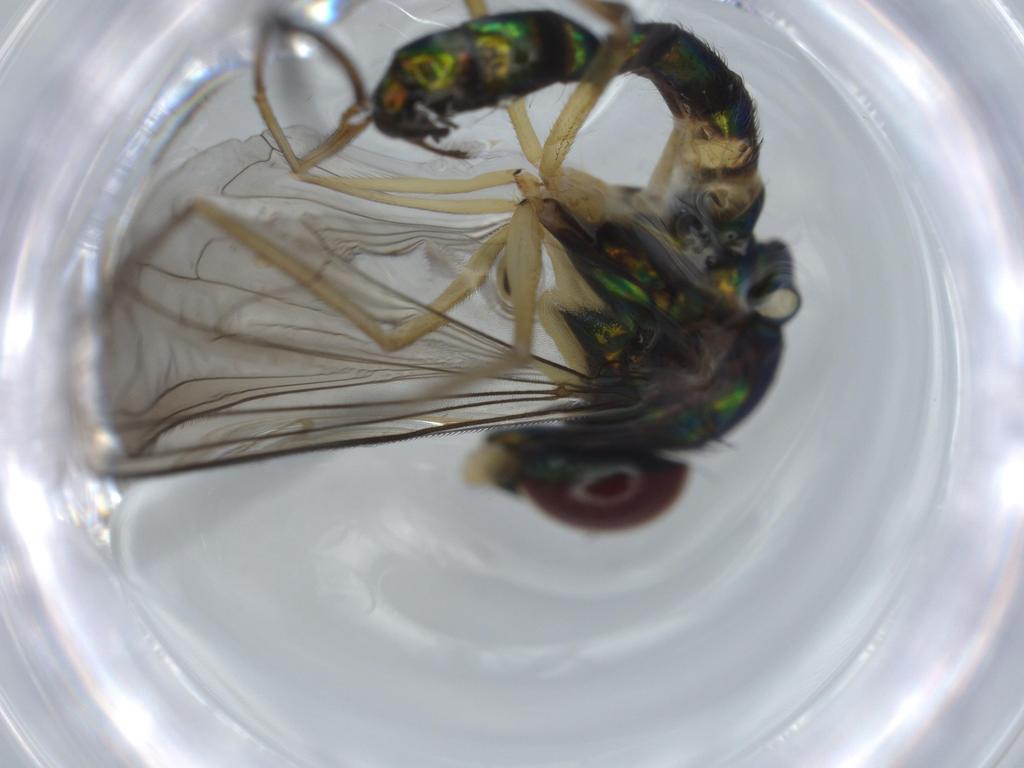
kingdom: Animalia
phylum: Arthropoda
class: Insecta
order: Diptera
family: Dolichopodidae
